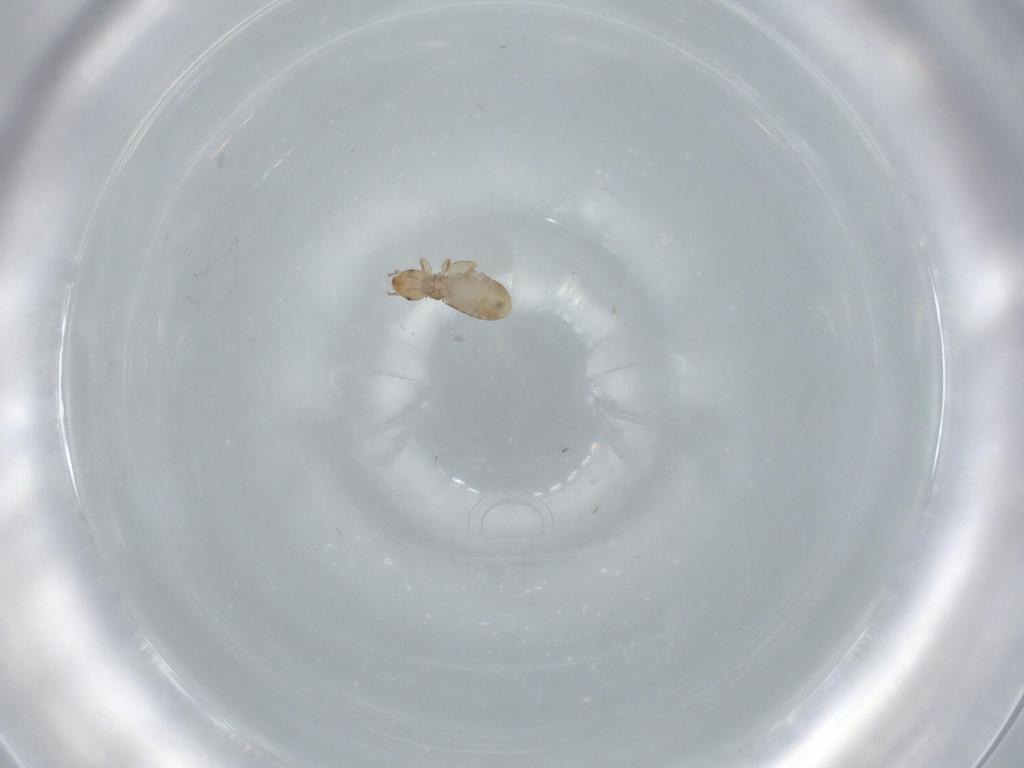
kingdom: Animalia
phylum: Arthropoda
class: Insecta
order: Psocodea
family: Liposcelididae
